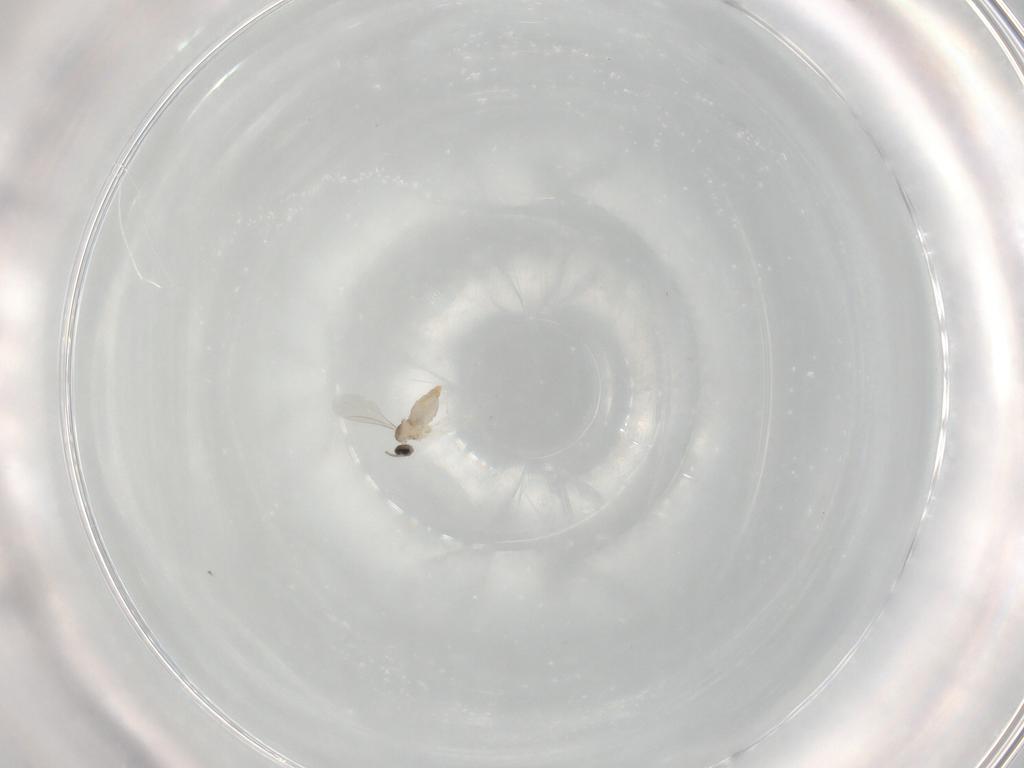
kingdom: Animalia
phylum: Arthropoda
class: Insecta
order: Diptera
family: Cecidomyiidae
